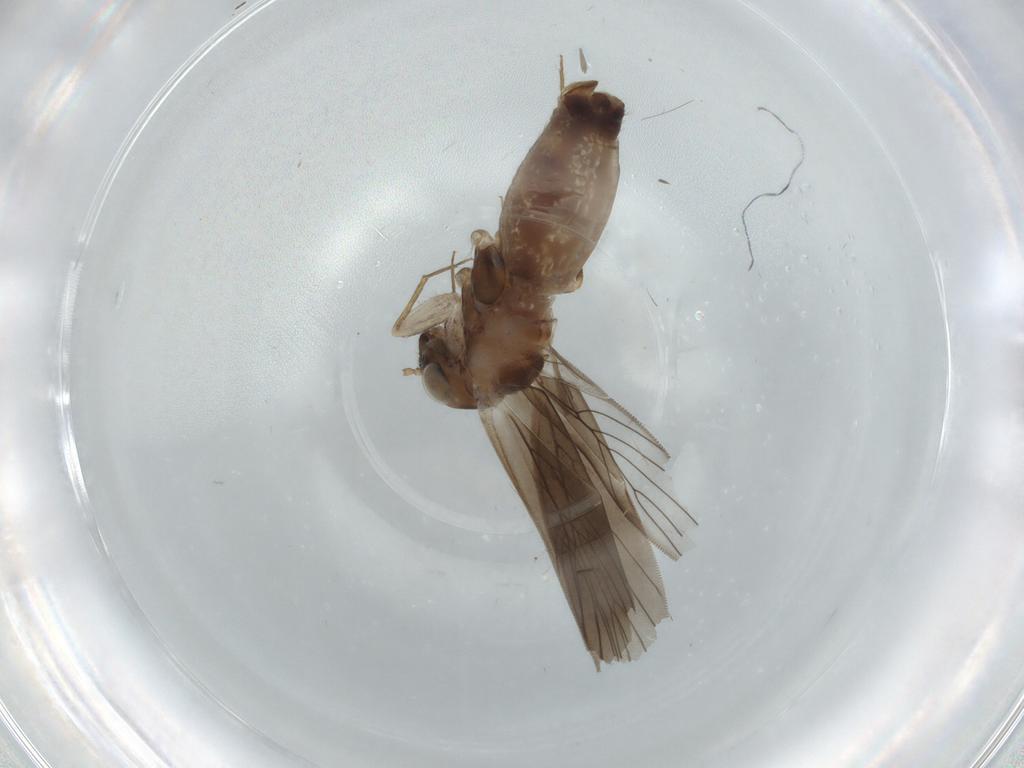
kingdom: Animalia
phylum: Arthropoda
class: Insecta
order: Psocodea
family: Lepidopsocidae
